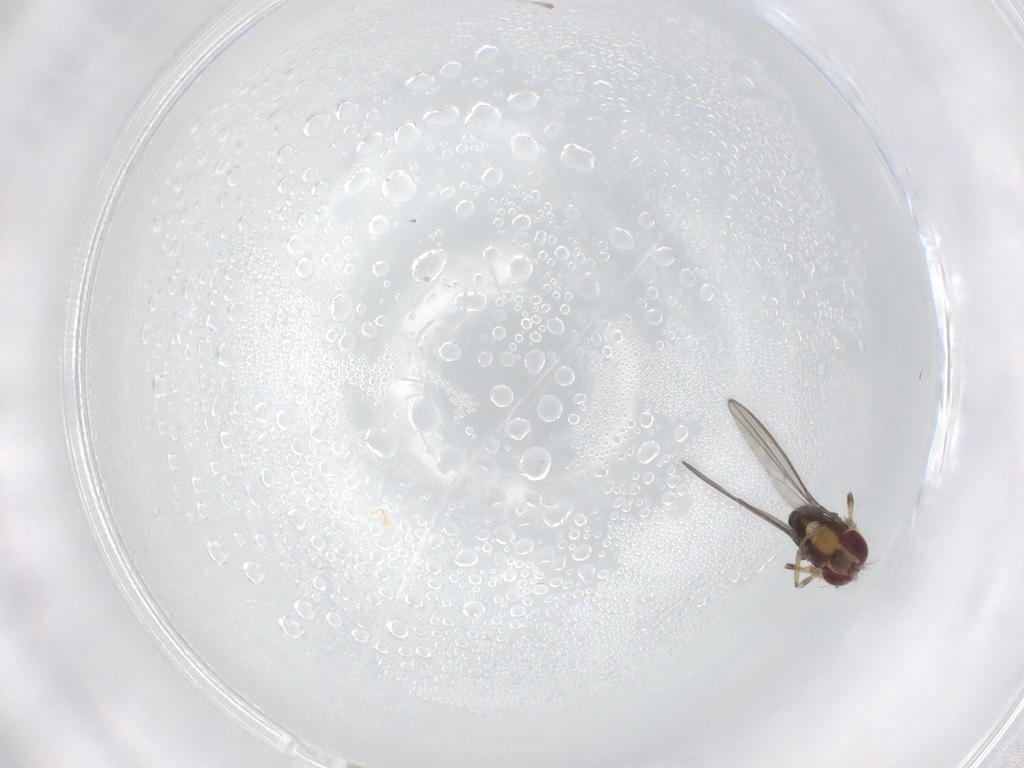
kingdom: Animalia
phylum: Arthropoda
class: Insecta
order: Diptera
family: Anthomyzidae
